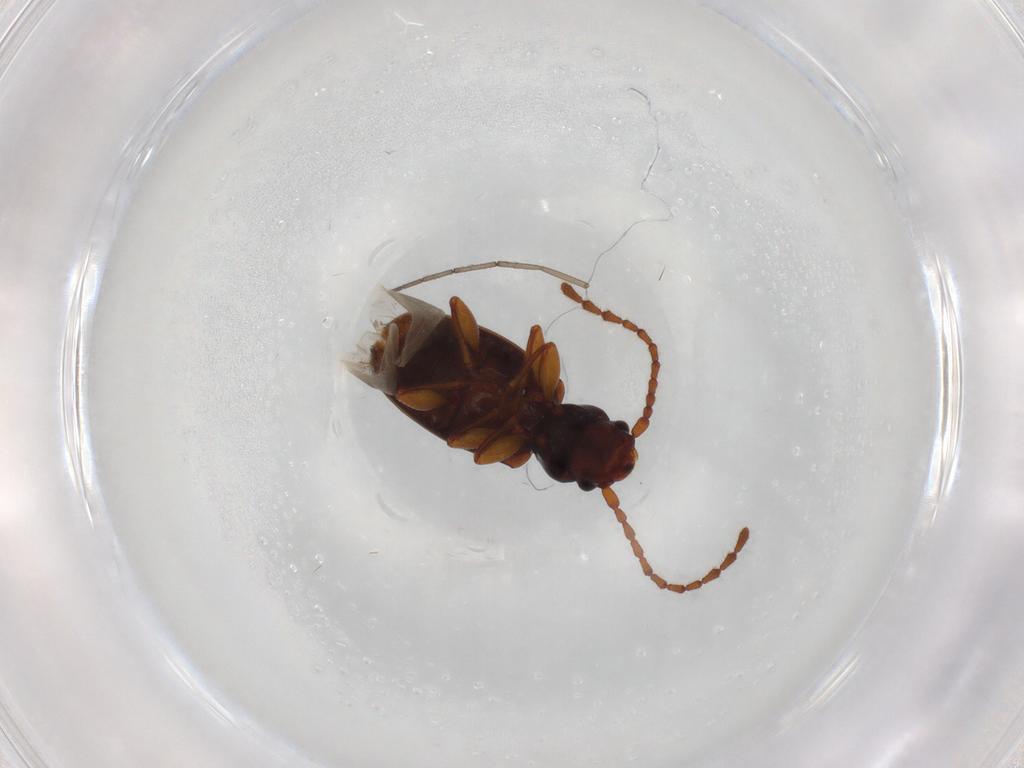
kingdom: Animalia
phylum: Arthropoda
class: Insecta
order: Coleoptera
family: Laemophloeidae
